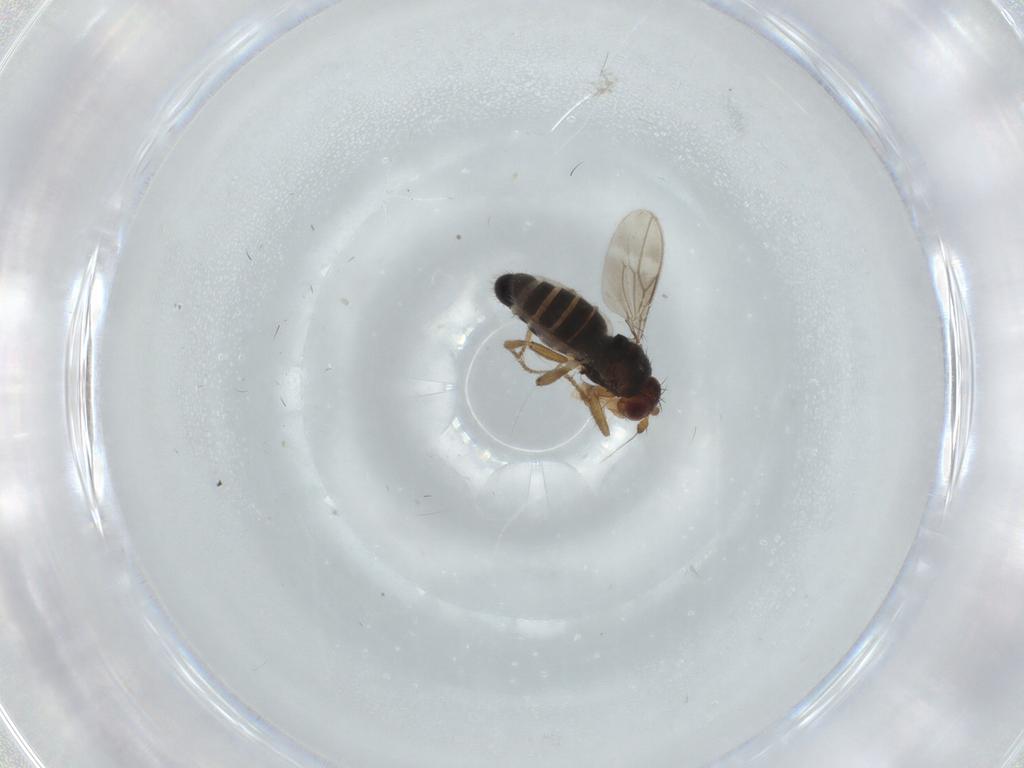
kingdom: Animalia
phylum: Arthropoda
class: Insecta
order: Diptera
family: Sphaeroceridae
